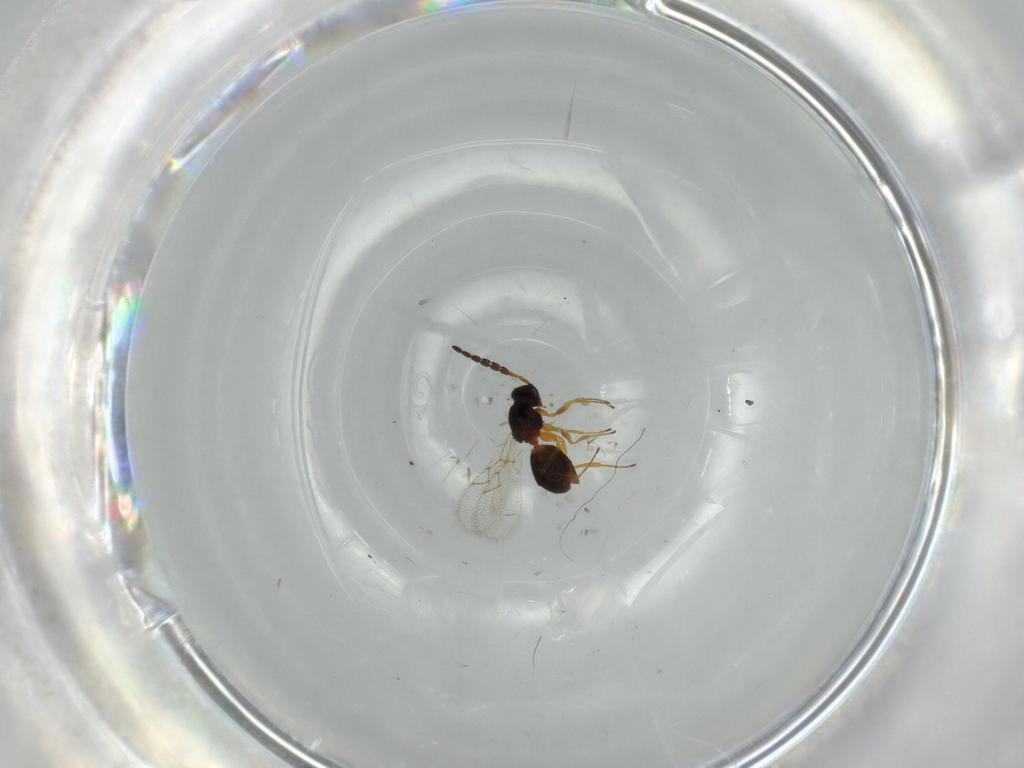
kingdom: Animalia
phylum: Arthropoda
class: Insecta
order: Hymenoptera
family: Figitidae
